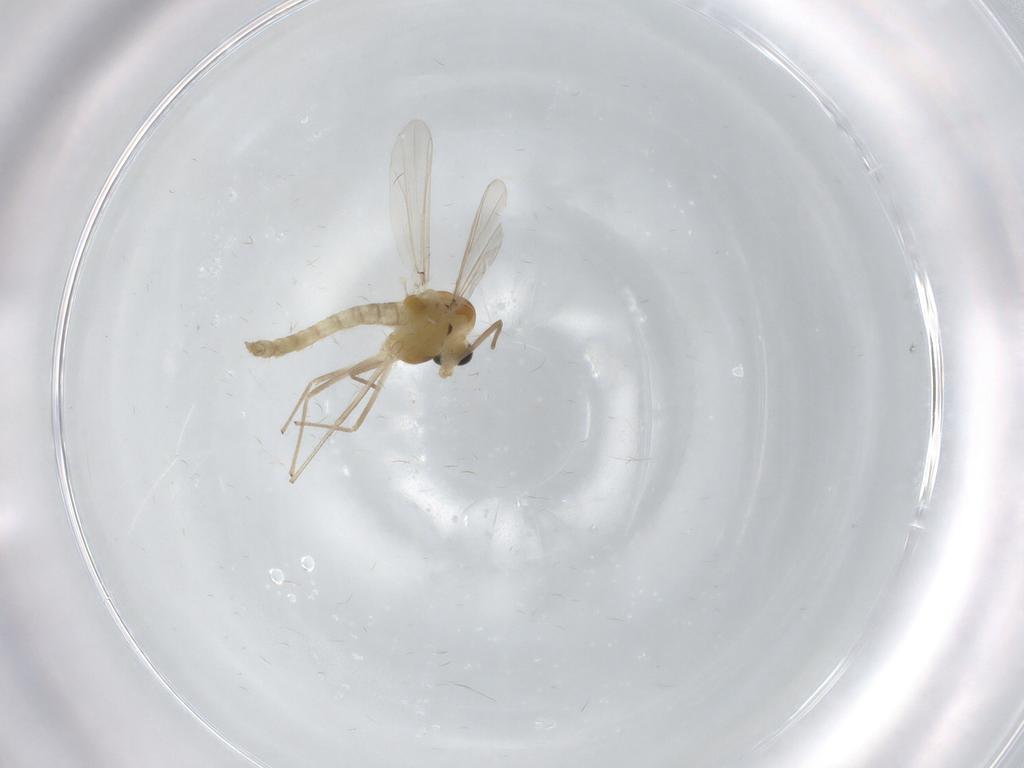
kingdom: Animalia
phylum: Arthropoda
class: Insecta
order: Diptera
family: Chironomidae
